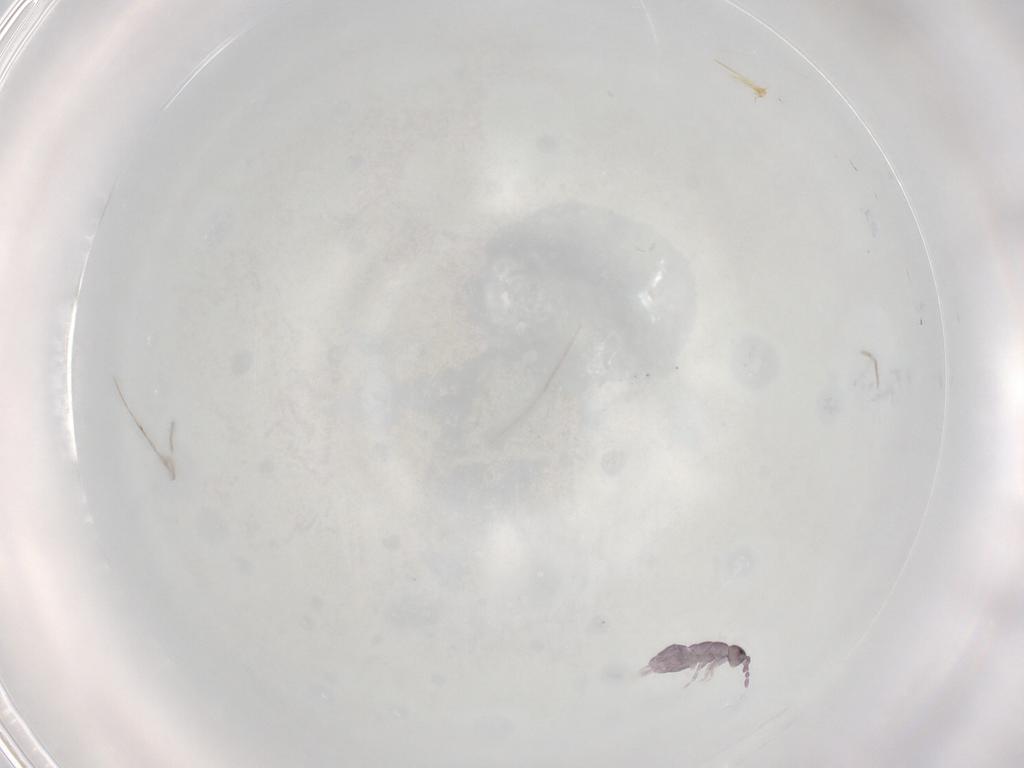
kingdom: Animalia
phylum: Arthropoda
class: Collembola
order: Entomobryomorpha
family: Isotomidae
